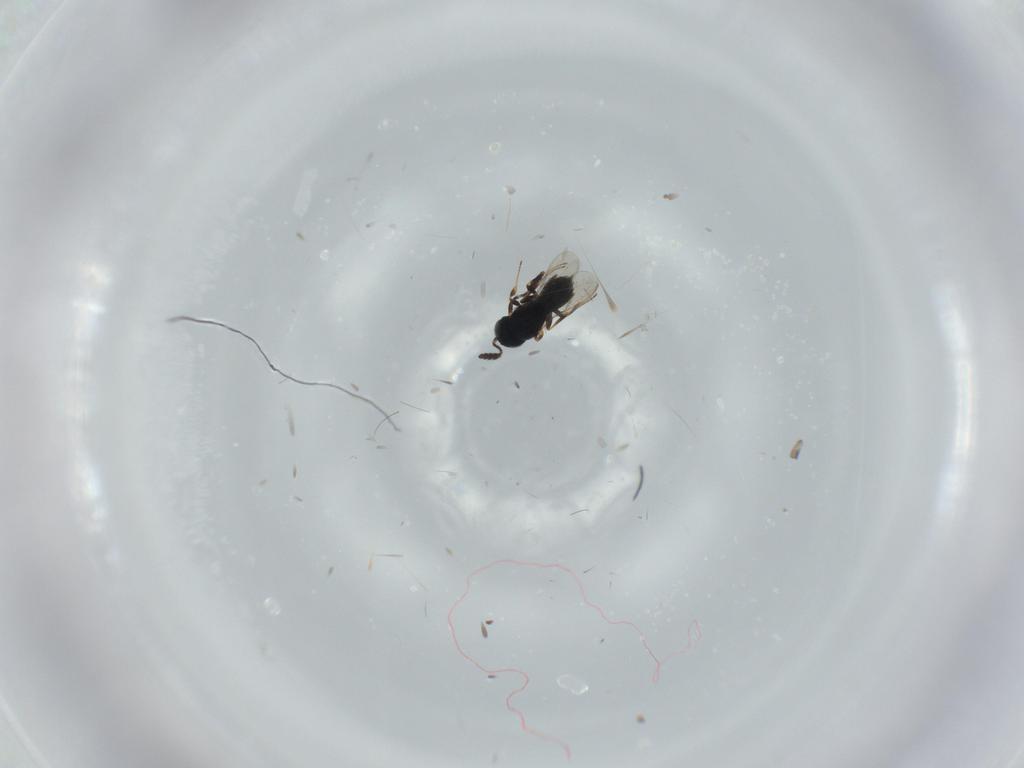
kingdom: Animalia
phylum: Arthropoda
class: Insecta
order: Hymenoptera
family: Scelionidae
